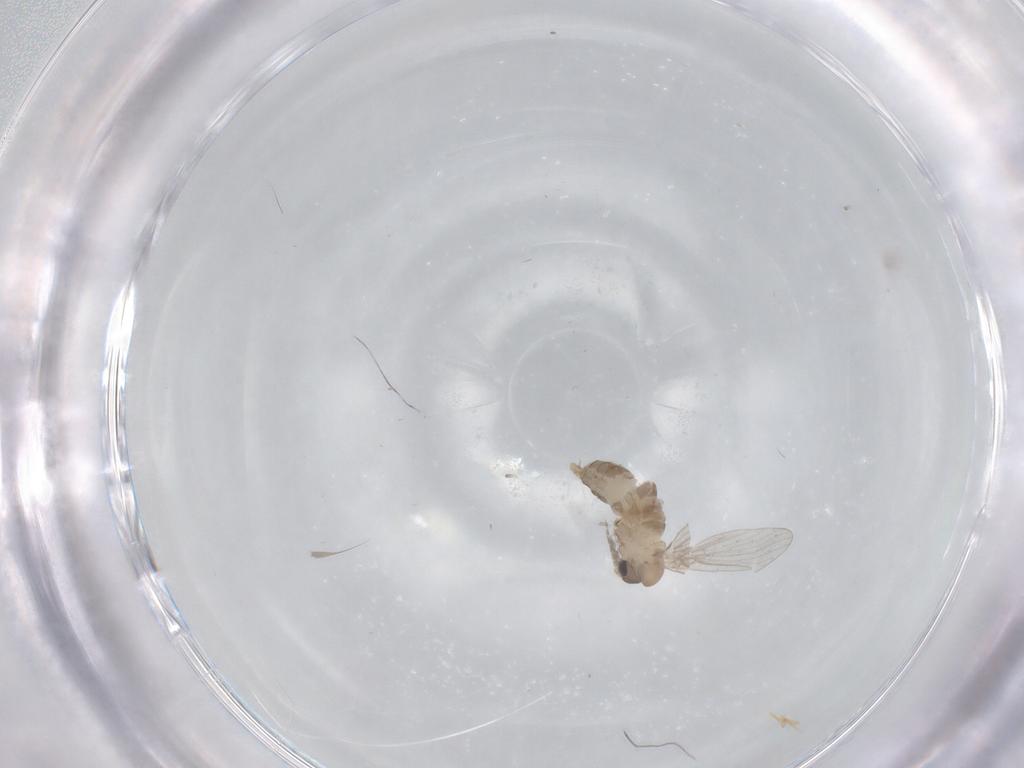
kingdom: Animalia
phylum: Arthropoda
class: Insecta
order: Diptera
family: Psychodidae
